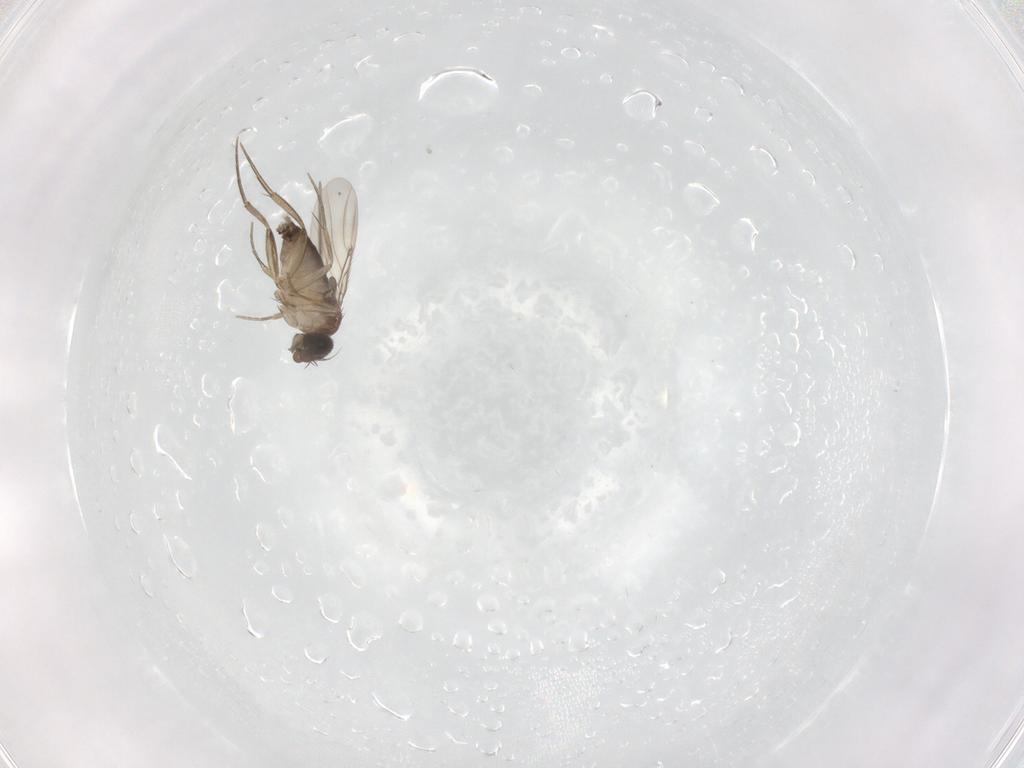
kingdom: Animalia
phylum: Arthropoda
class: Insecta
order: Diptera
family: Phoridae
